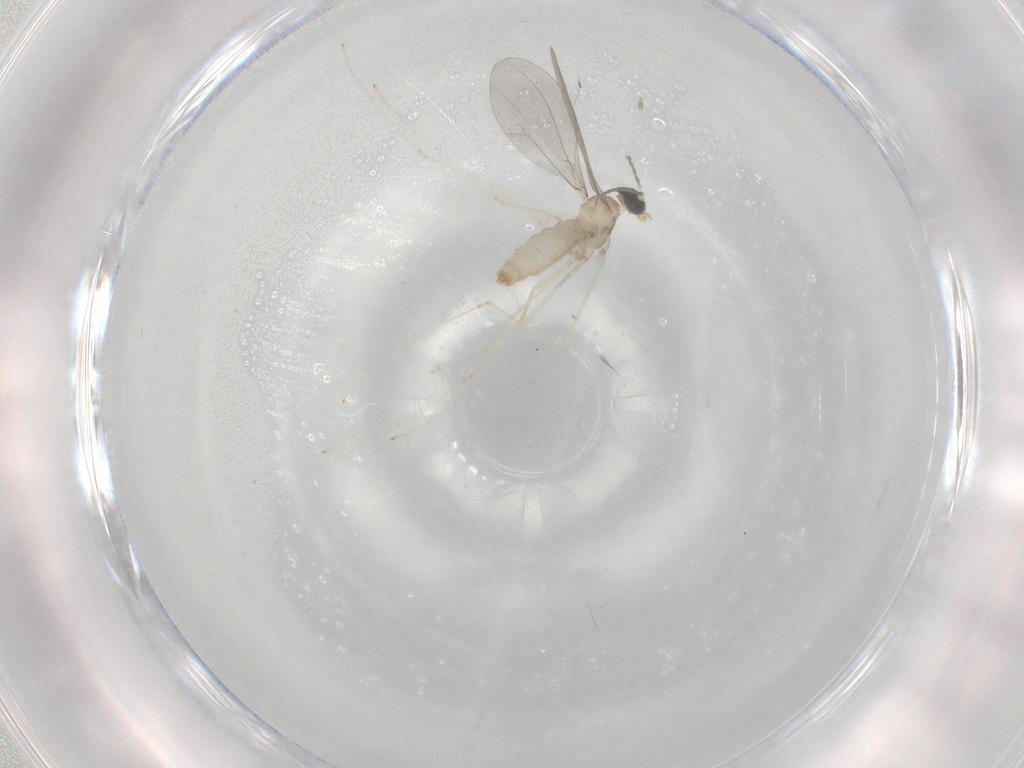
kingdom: Animalia
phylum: Arthropoda
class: Insecta
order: Diptera
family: Cecidomyiidae
